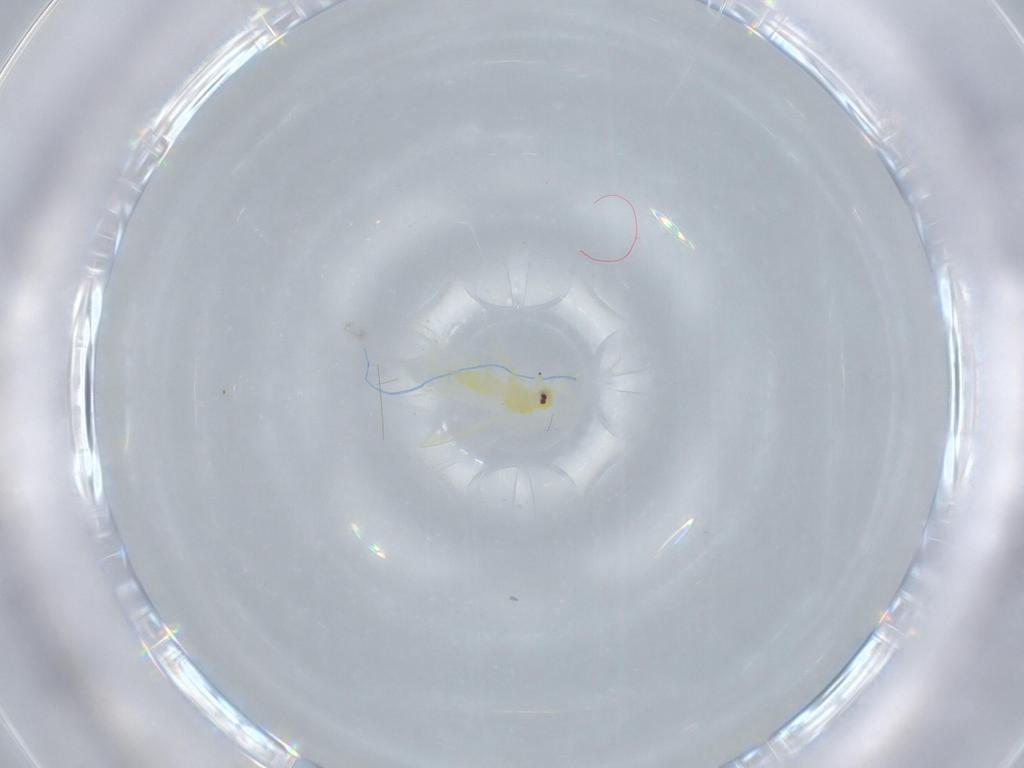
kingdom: Animalia
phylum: Arthropoda
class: Insecta
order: Hemiptera
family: Aleyrodidae
